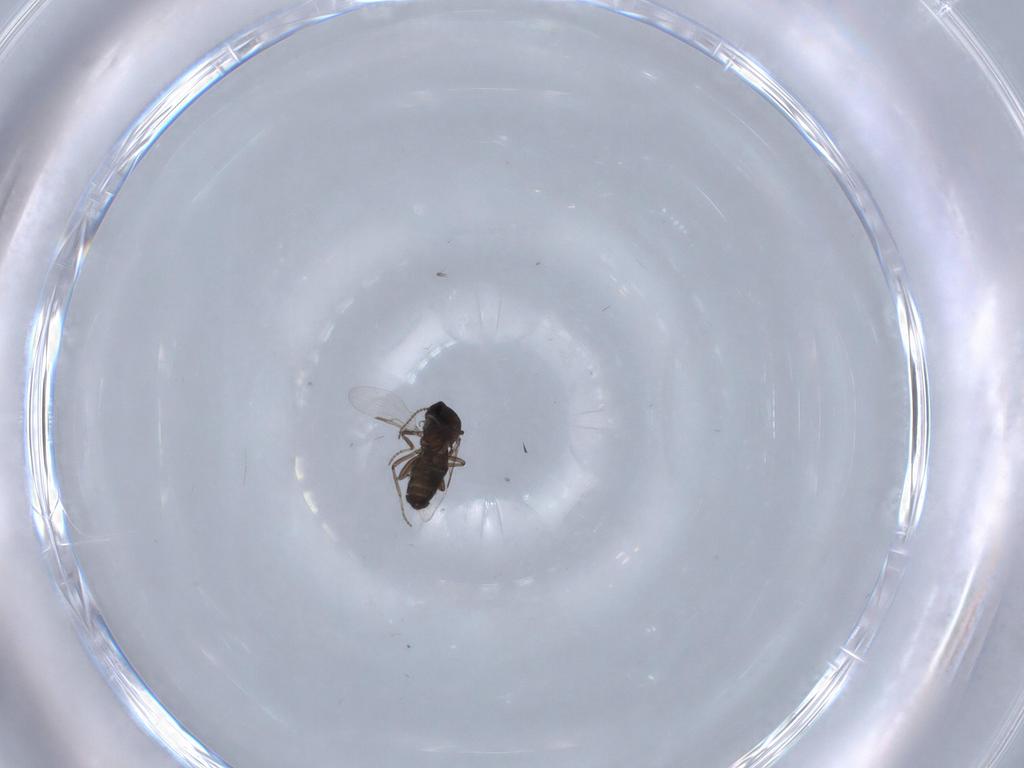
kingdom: Animalia
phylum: Arthropoda
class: Insecta
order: Diptera
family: Ceratopogonidae
